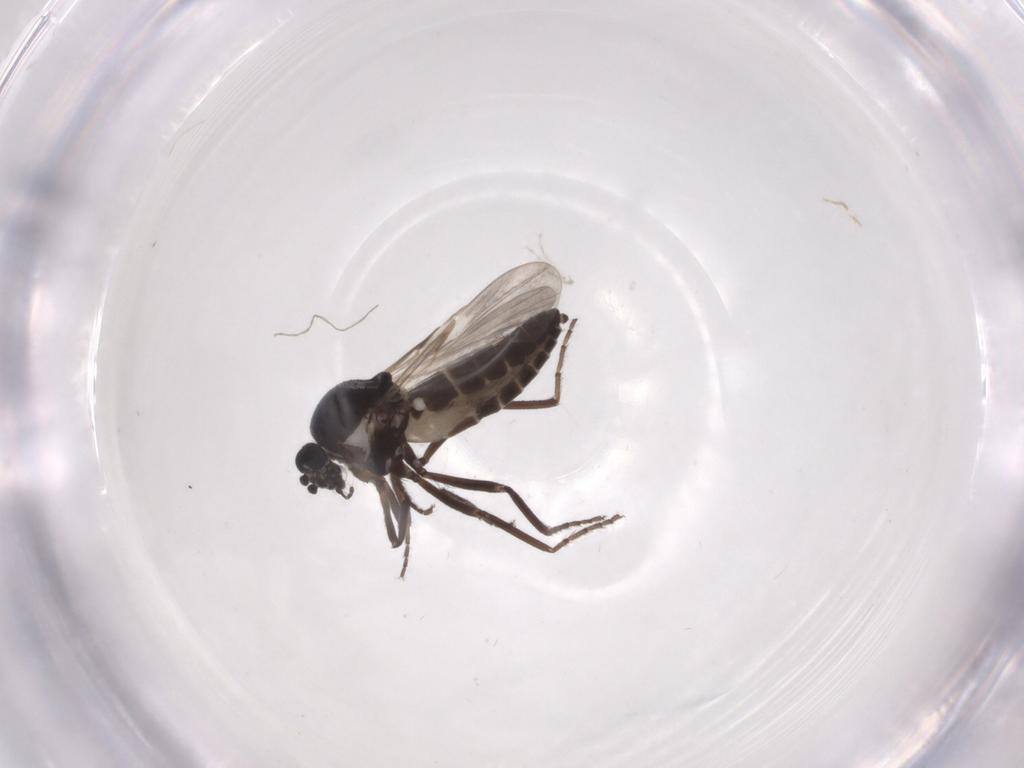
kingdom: Animalia
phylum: Arthropoda
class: Insecta
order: Diptera
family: Ceratopogonidae
